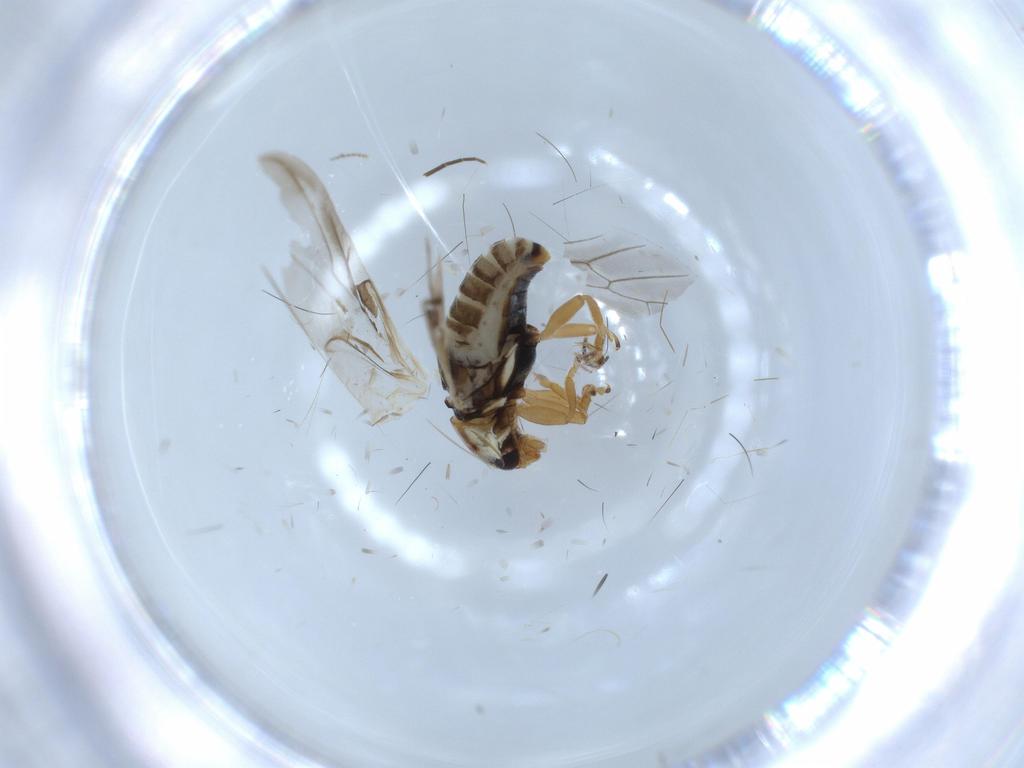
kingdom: Animalia
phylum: Arthropoda
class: Insecta
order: Coleoptera
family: Coccinellidae
